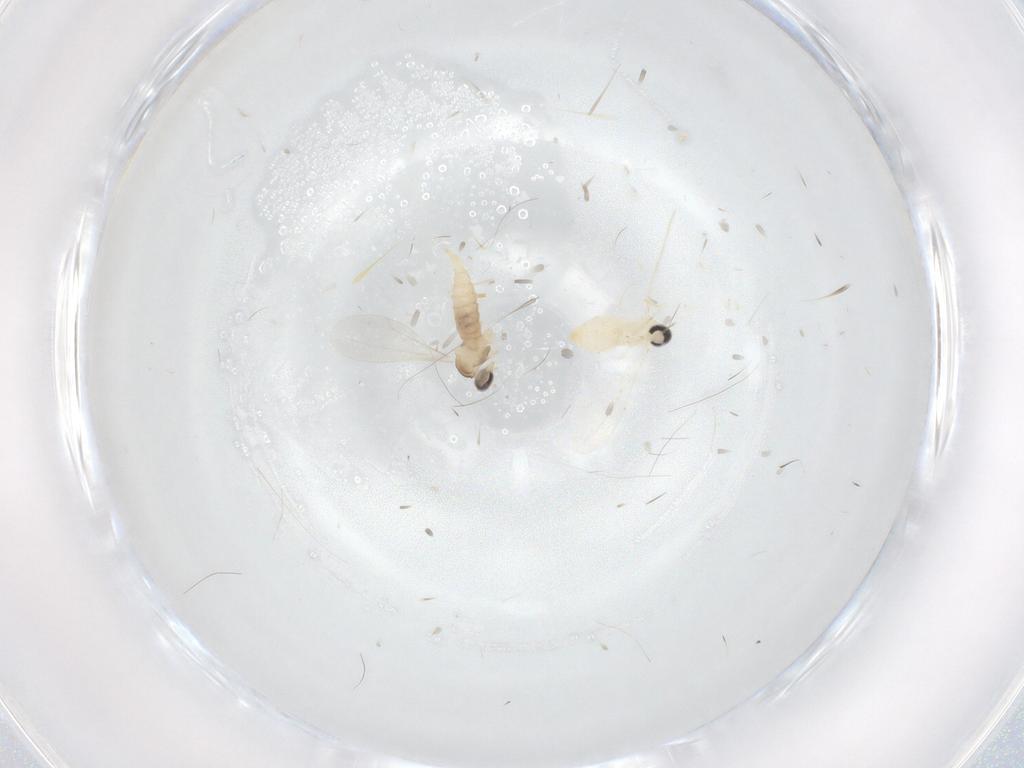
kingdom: Animalia
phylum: Arthropoda
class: Insecta
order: Diptera
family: Cecidomyiidae
